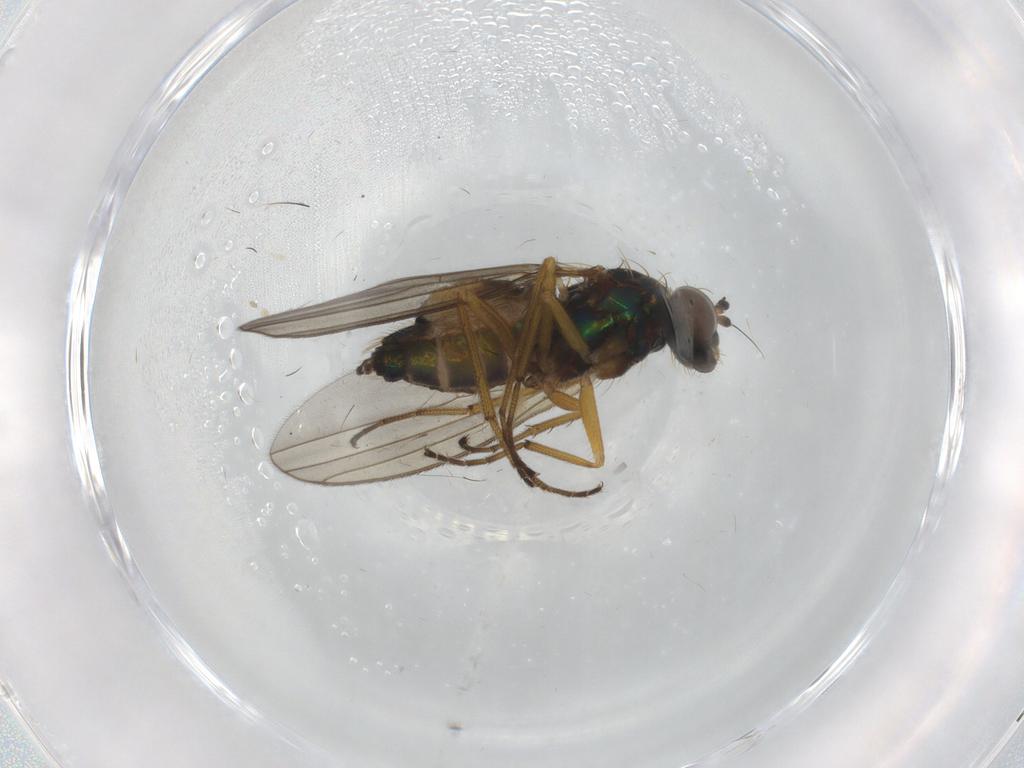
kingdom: Animalia
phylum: Arthropoda
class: Insecta
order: Diptera
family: Dolichopodidae
